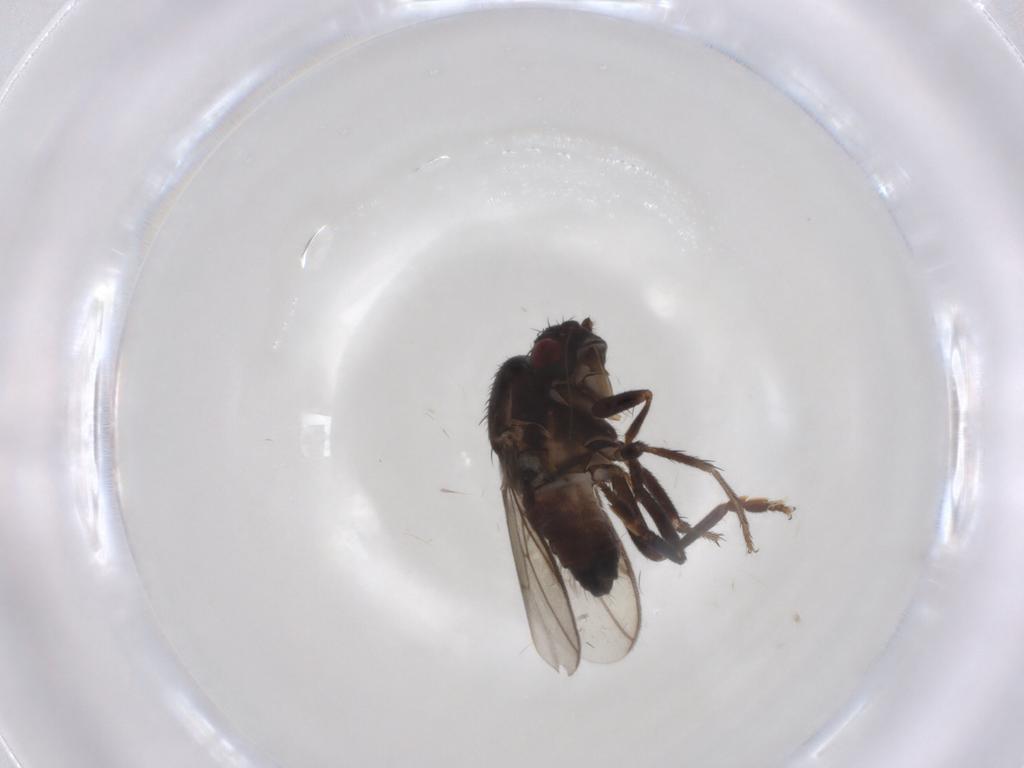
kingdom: Animalia
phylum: Arthropoda
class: Insecta
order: Diptera
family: Sphaeroceridae
